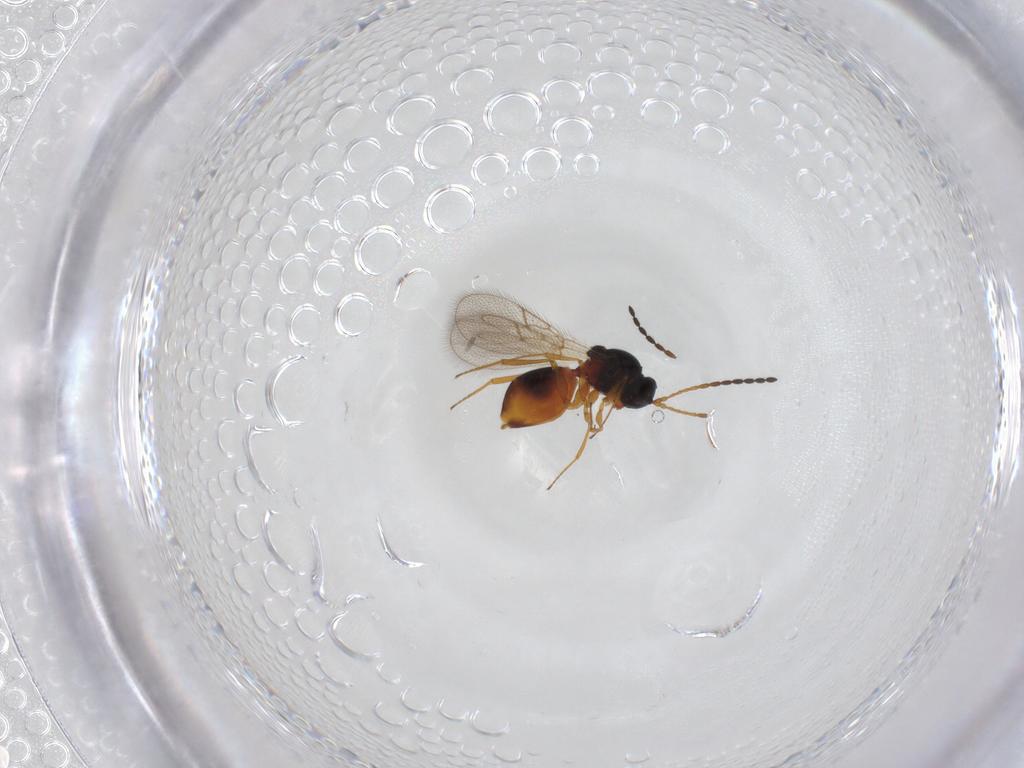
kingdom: Animalia
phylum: Arthropoda
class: Insecta
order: Hymenoptera
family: Figitidae
